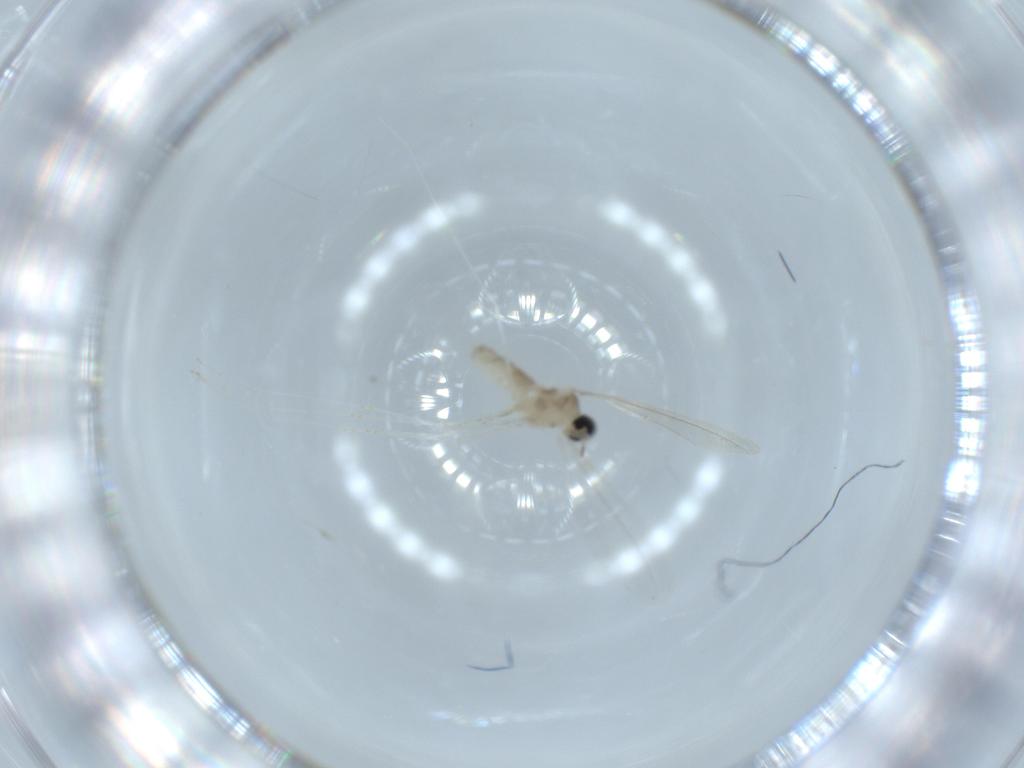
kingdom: Animalia
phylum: Arthropoda
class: Insecta
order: Diptera
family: Cecidomyiidae
